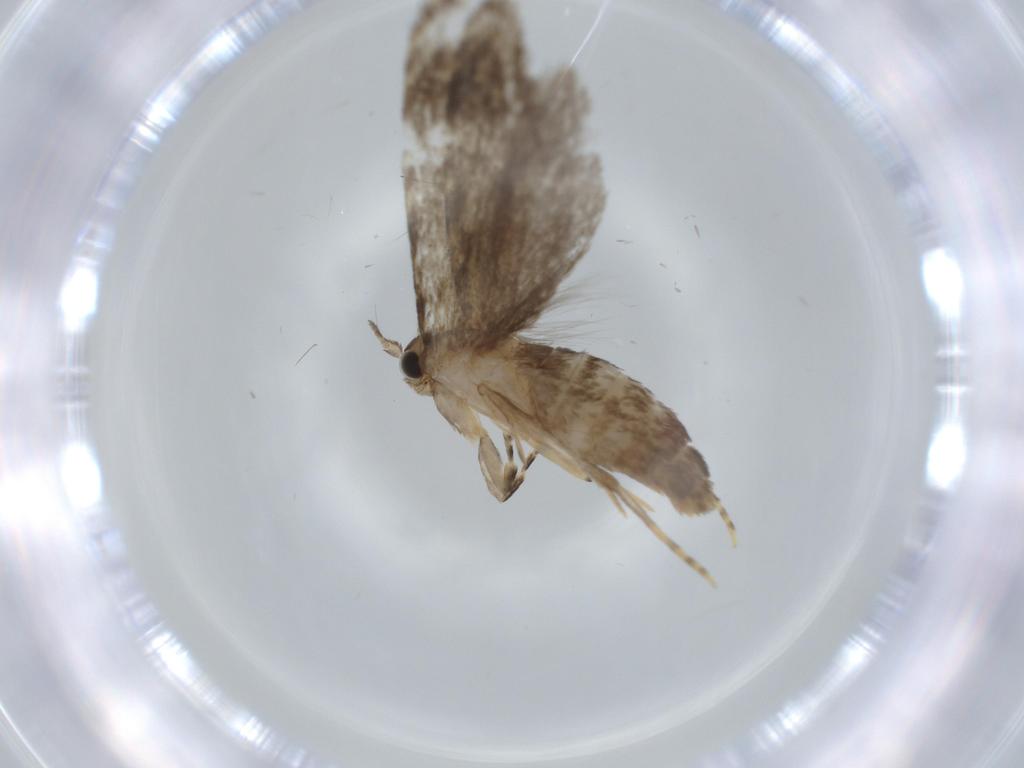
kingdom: Animalia
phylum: Arthropoda
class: Insecta
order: Lepidoptera
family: Tineidae
